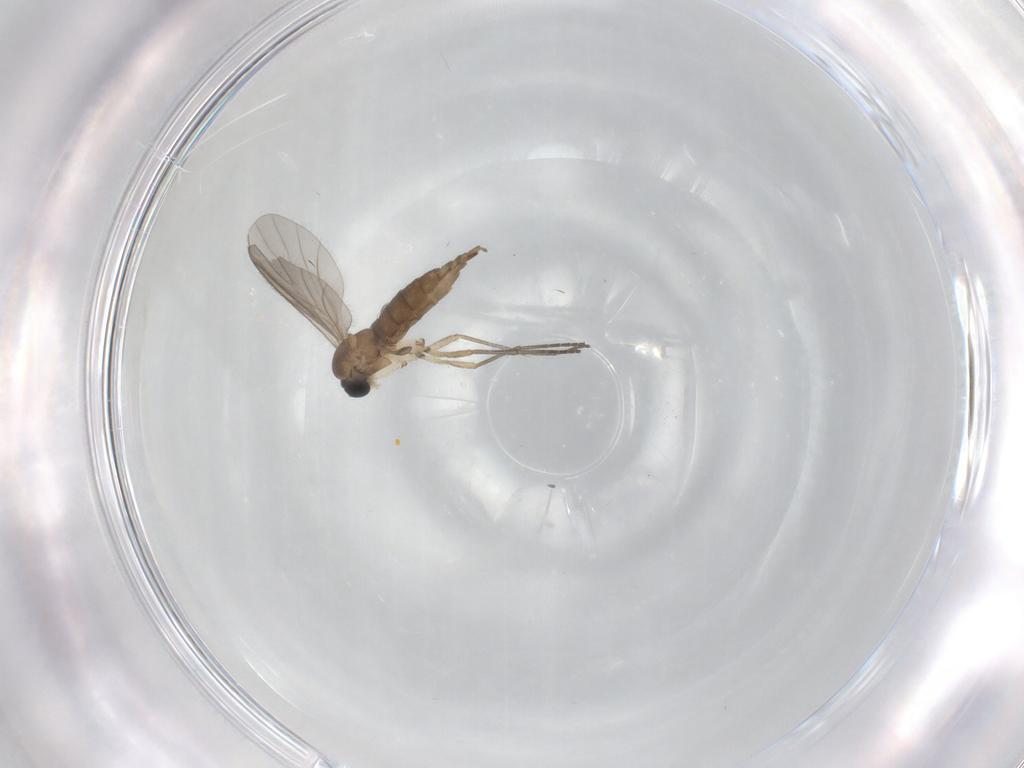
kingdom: Animalia
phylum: Arthropoda
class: Insecta
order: Diptera
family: Sciaridae
